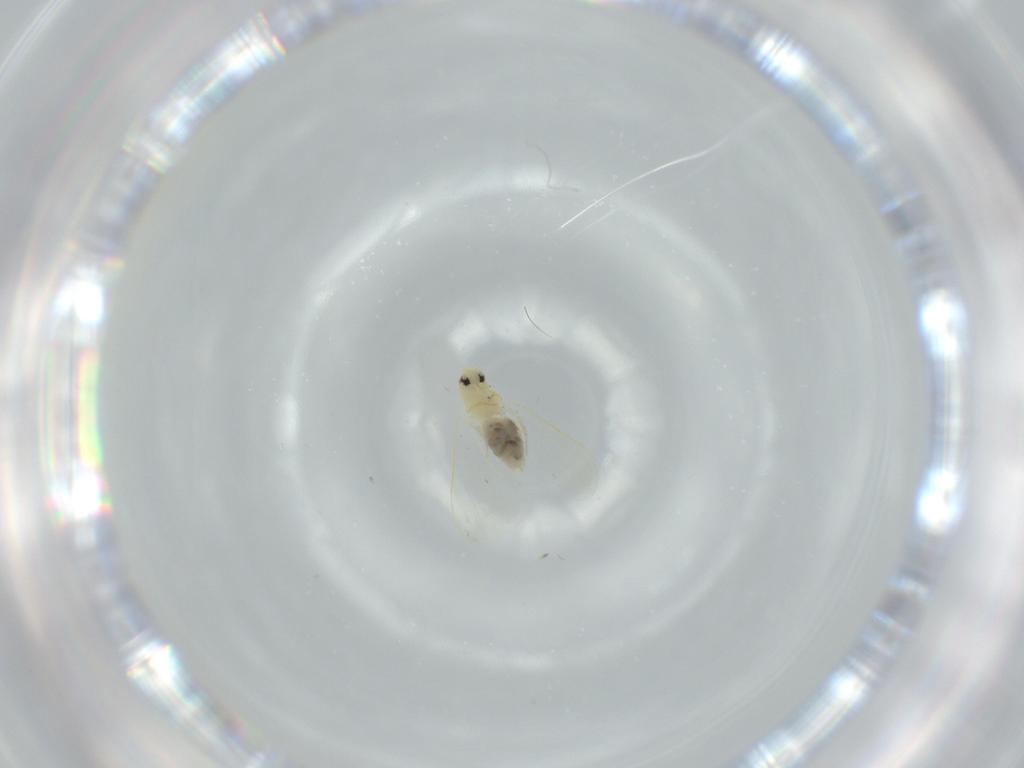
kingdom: Animalia
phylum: Arthropoda
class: Insecta
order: Hemiptera
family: Aleyrodidae
